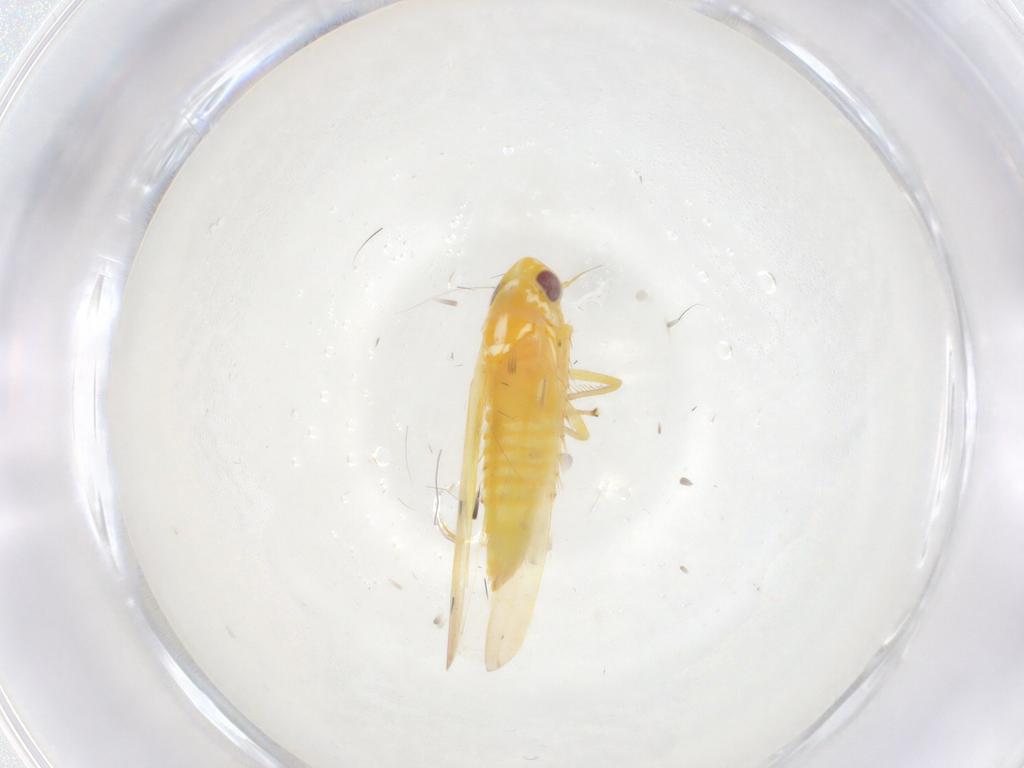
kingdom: Animalia
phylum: Arthropoda
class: Insecta
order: Hemiptera
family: Cicadellidae
